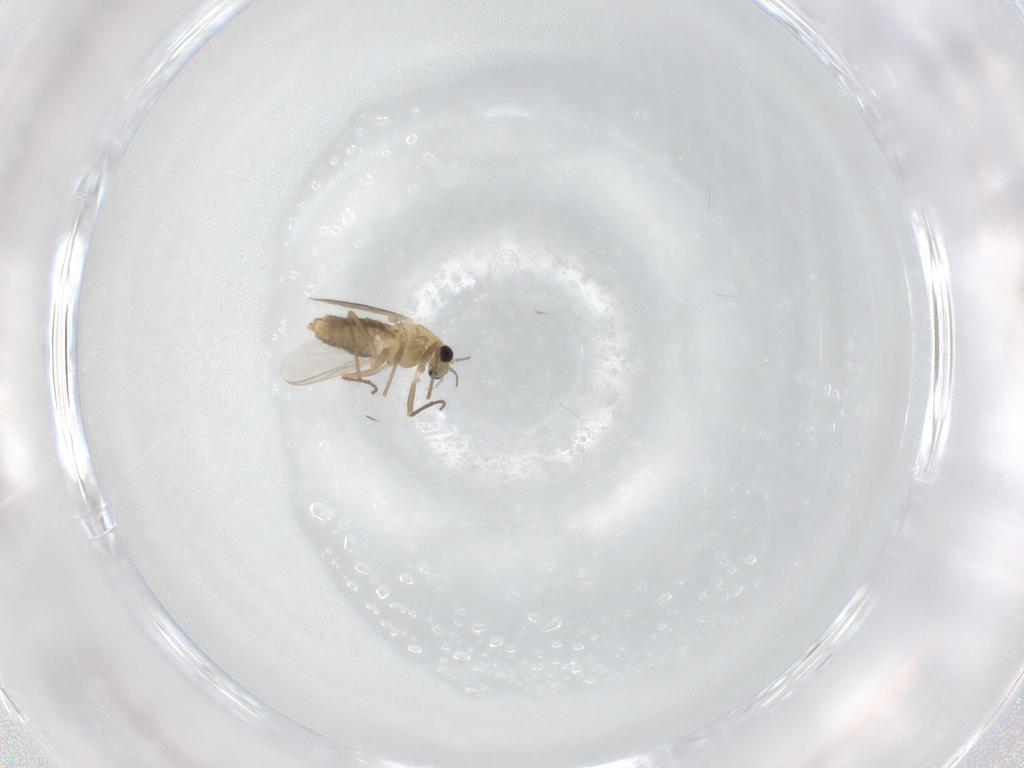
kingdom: Animalia
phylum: Arthropoda
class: Insecta
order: Diptera
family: Chironomidae
